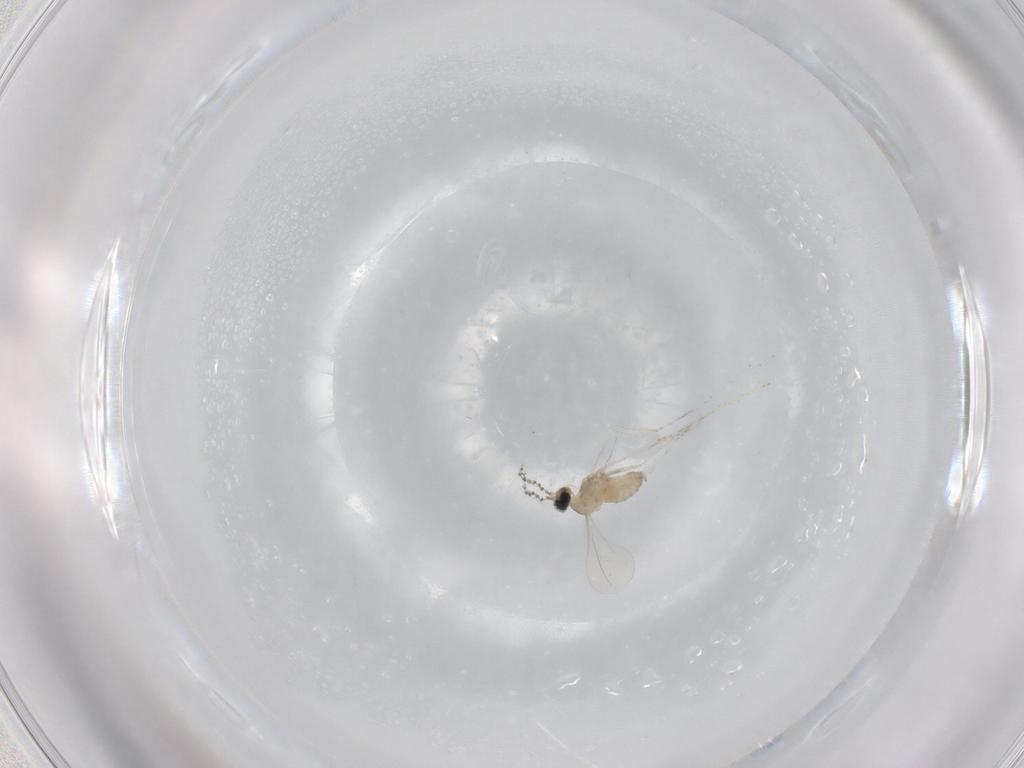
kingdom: Animalia
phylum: Arthropoda
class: Insecta
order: Diptera
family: Cecidomyiidae
